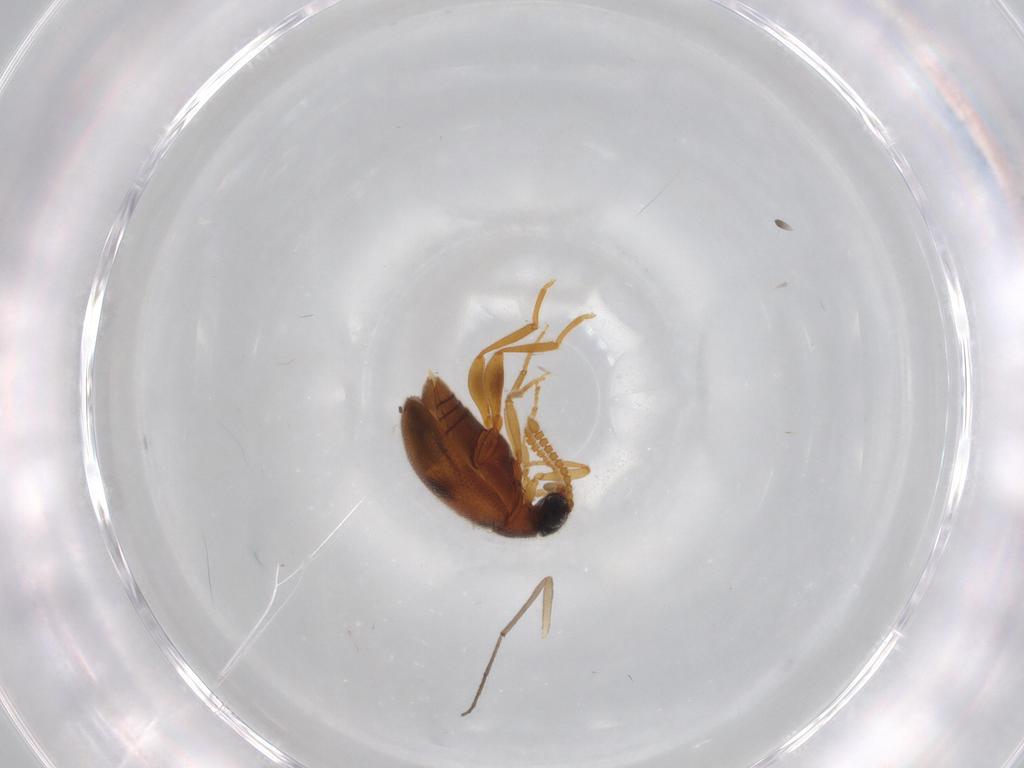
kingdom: Animalia
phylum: Arthropoda
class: Insecta
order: Coleoptera
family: Aderidae
